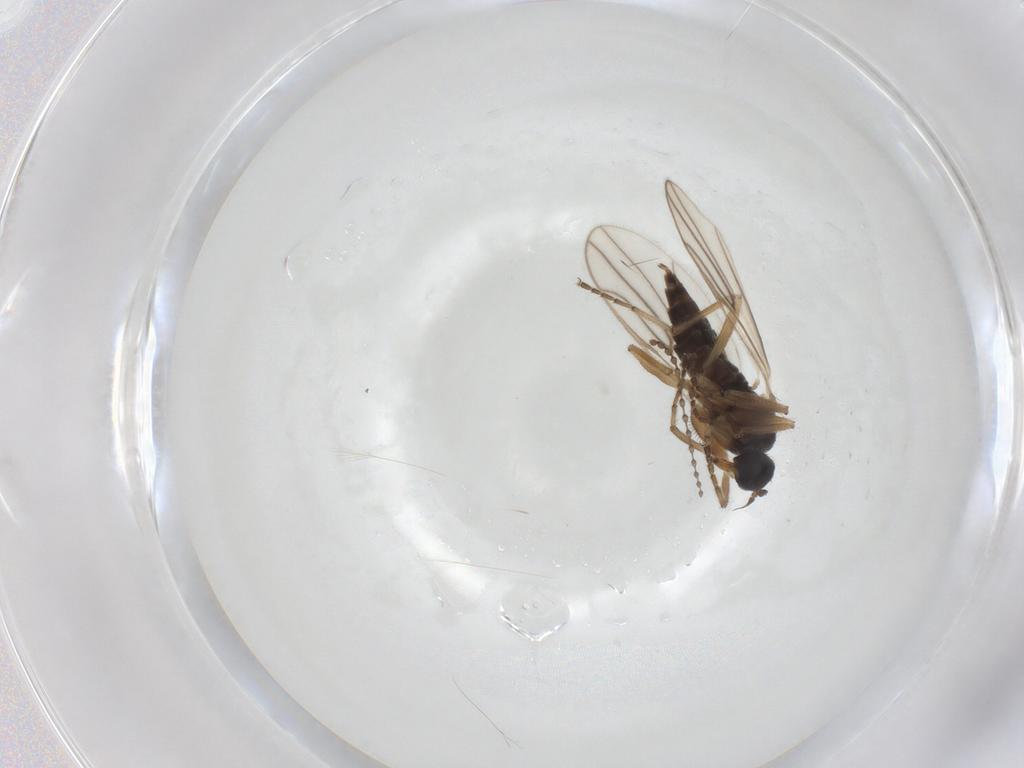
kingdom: Animalia
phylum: Arthropoda
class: Insecta
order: Diptera
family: Hybotidae
